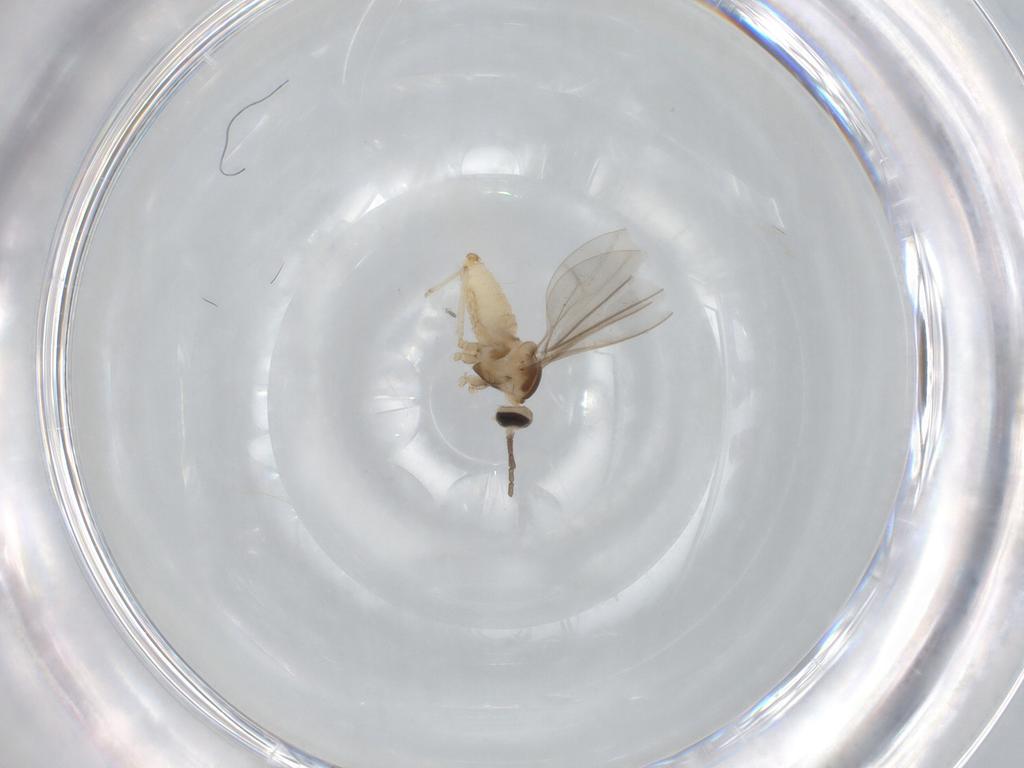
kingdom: Animalia
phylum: Arthropoda
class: Insecta
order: Diptera
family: Cecidomyiidae
